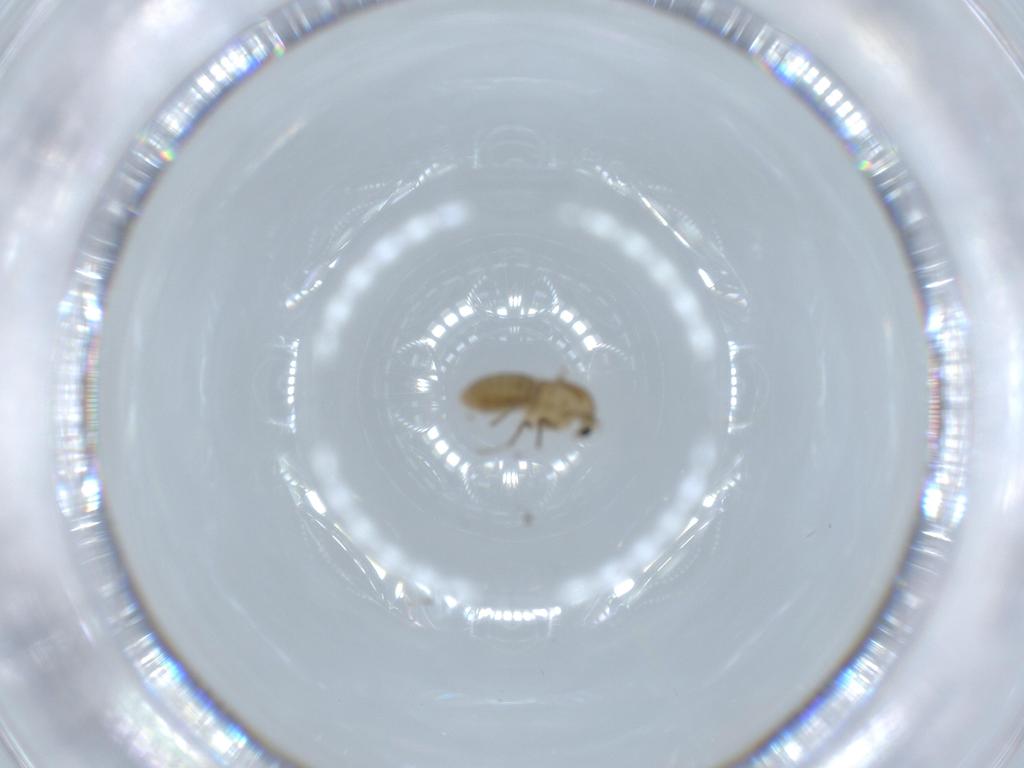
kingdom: Animalia
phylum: Arthropoda
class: Insecta
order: Diptera
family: Chironomidae
